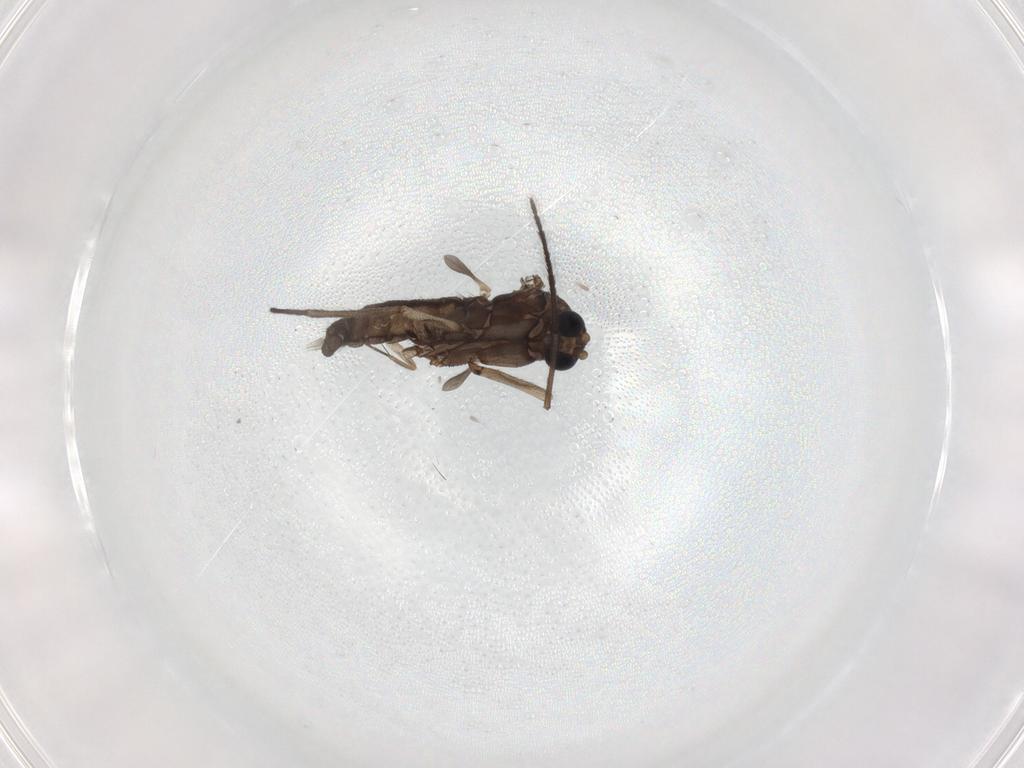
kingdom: Animalia
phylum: Arthropoda
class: Insecta
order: Diptera
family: Sciaridae
